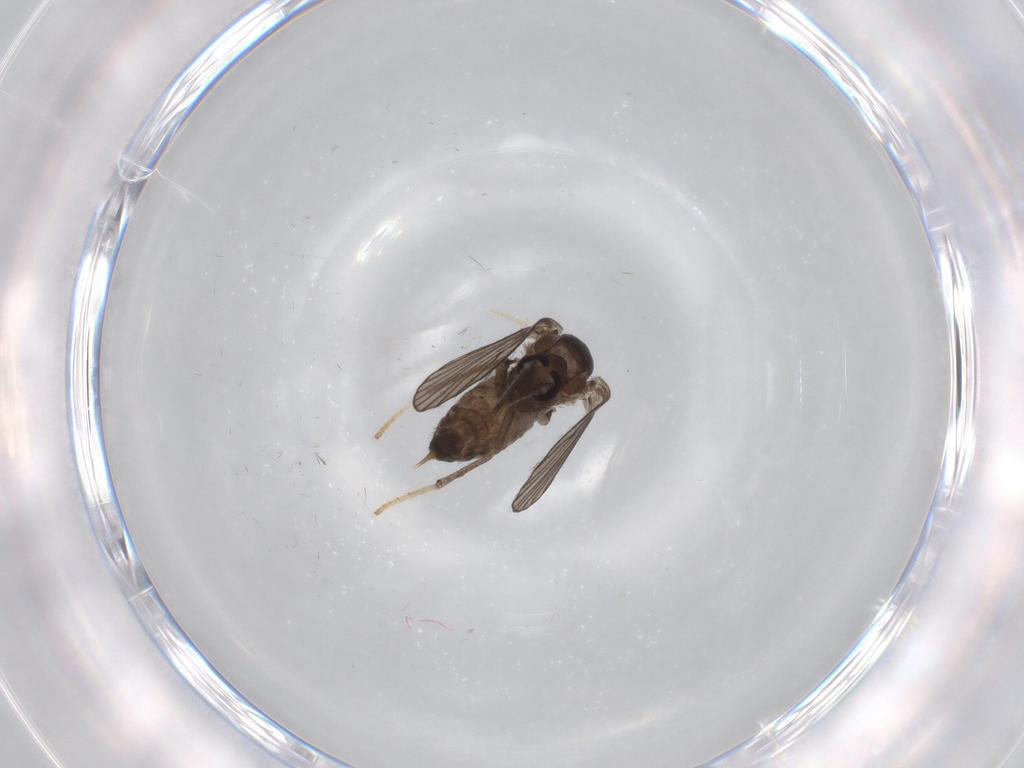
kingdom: Animalia
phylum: Arthropoda
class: Insecta
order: Diptera
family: Psychodidae
